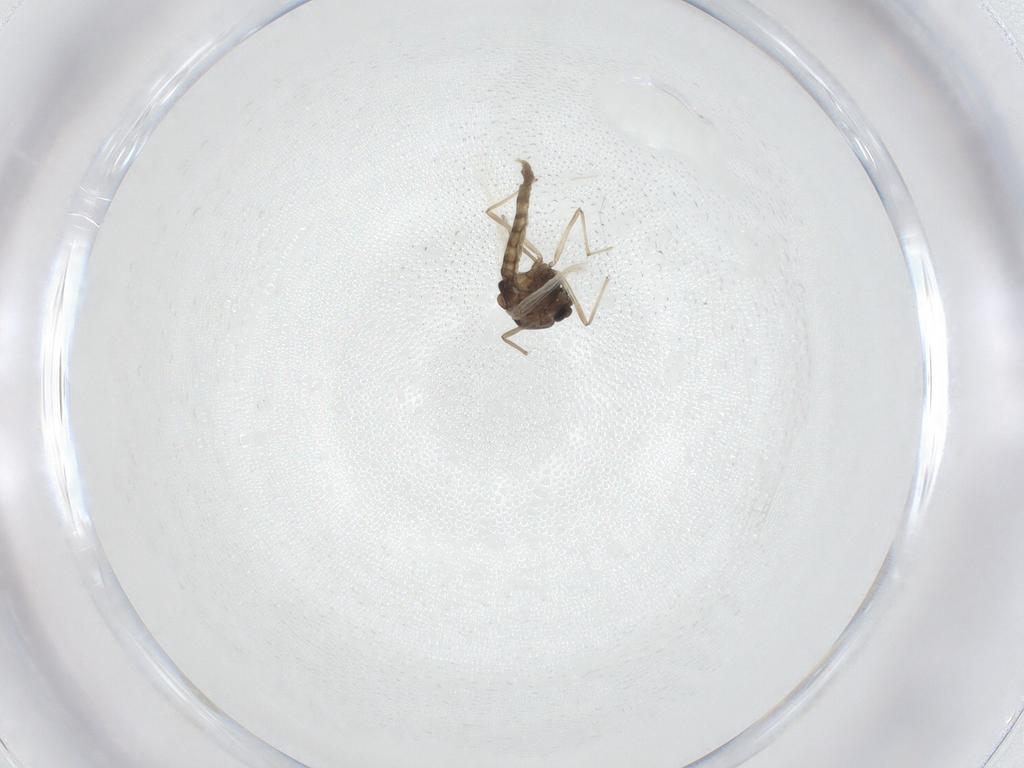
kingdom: Animalia
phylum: Arthropoda
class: Insecta
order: Diptera
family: Cecidomyiidae
